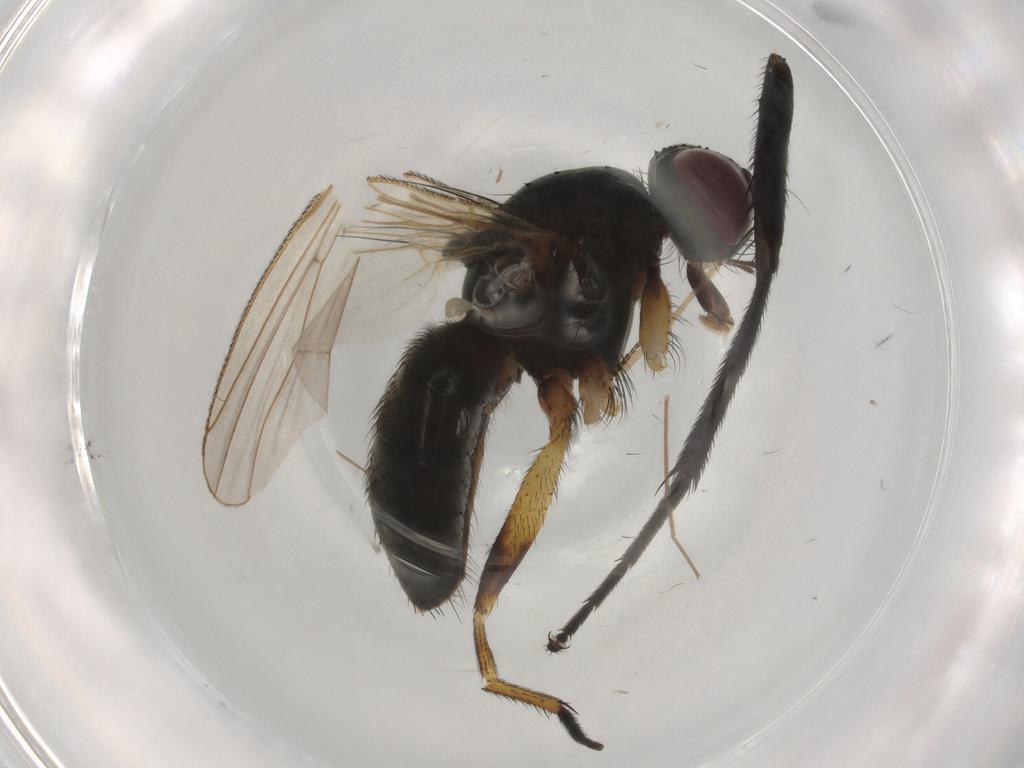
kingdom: Animalia
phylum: Arthropoda
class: Insecta
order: Diptera
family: Muscidae
